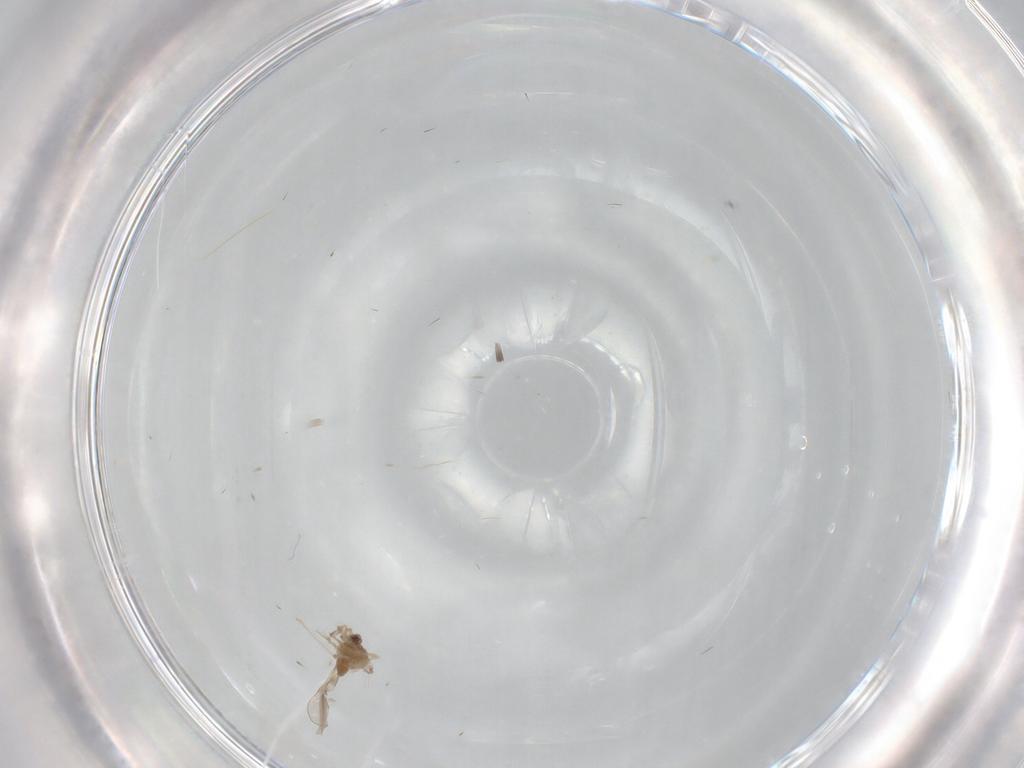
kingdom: Animalia
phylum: Arthropoda
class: Insecta
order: Diptera
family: Cecidomyiidae
